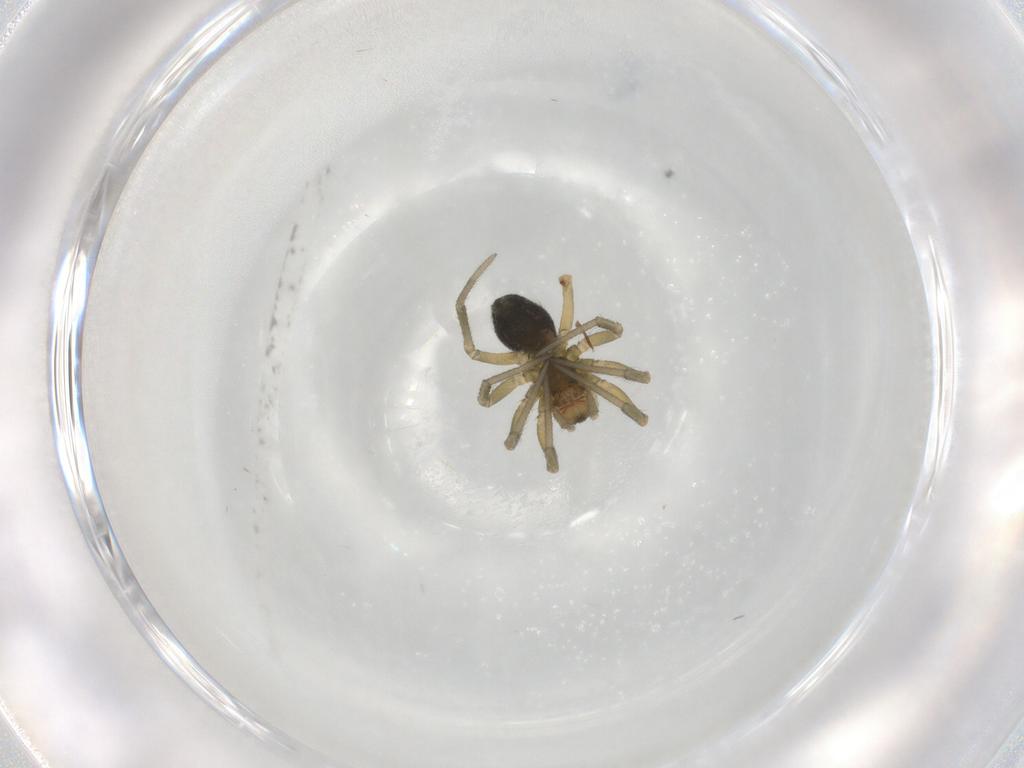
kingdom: Animalia
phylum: Arthropoda
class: Arachnida
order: Araneae
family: Linyphiidae
